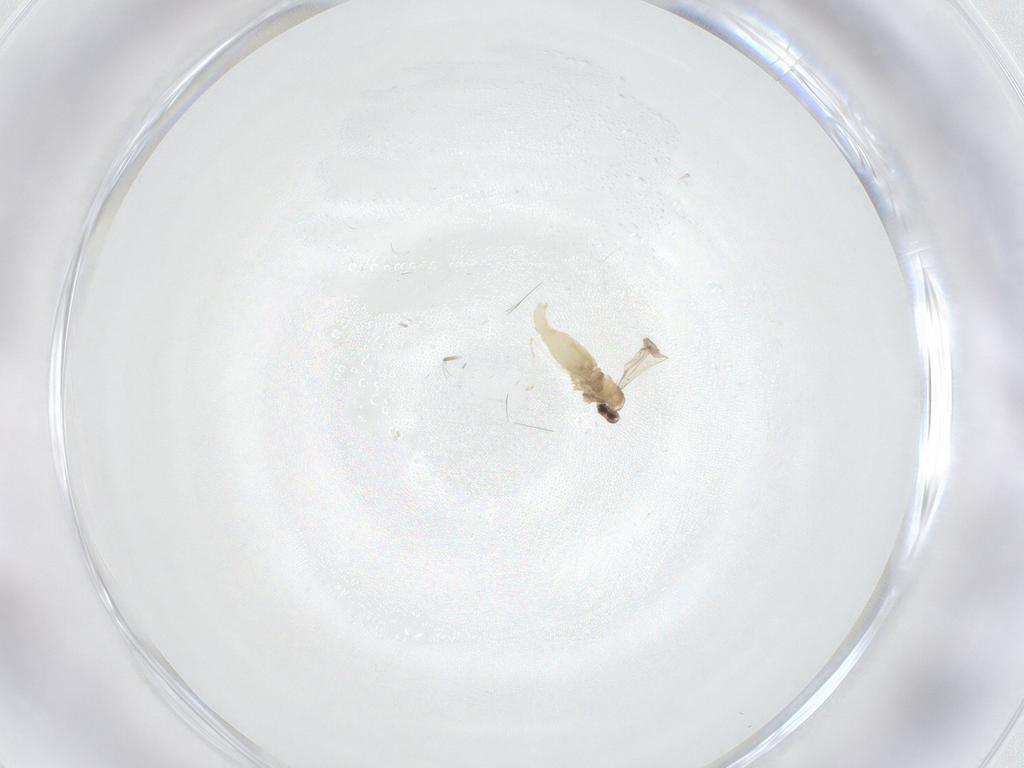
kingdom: Animalia
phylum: Arthropoda
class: Insecta
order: Diptera
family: Cecidomyiidae
